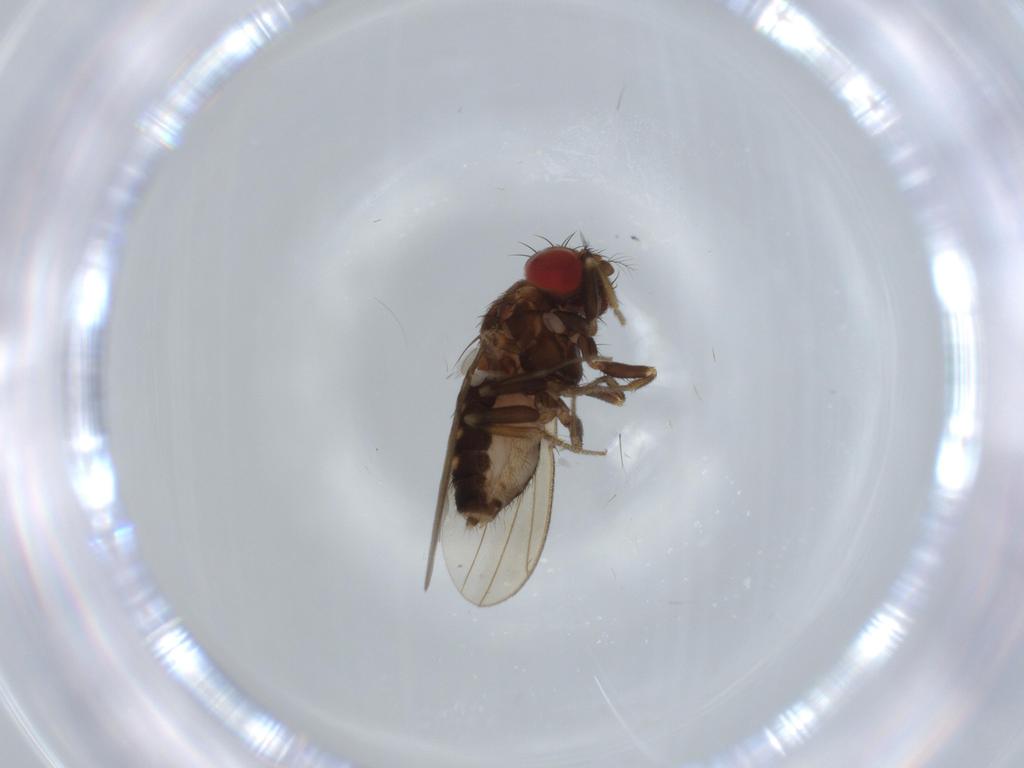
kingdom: Animalia
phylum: Arthropoda
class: Insecta
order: Diptera
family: Drosophilidae
